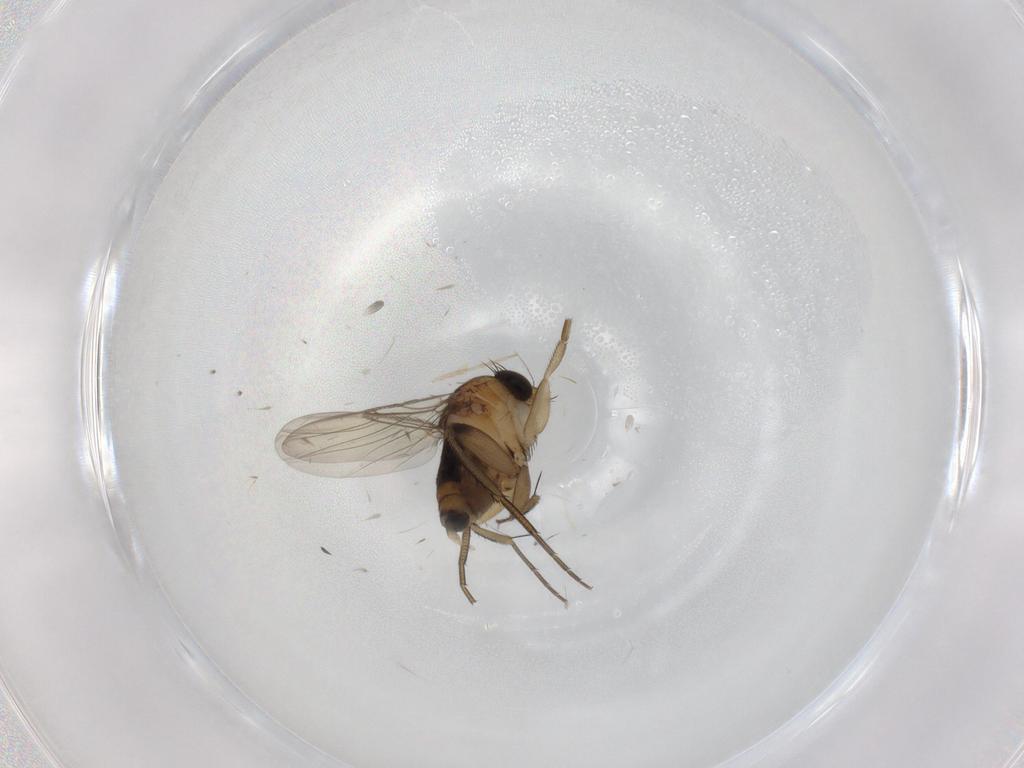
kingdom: Animalia
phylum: Arthropoda
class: Insecta
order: Diptera
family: Phoridae
